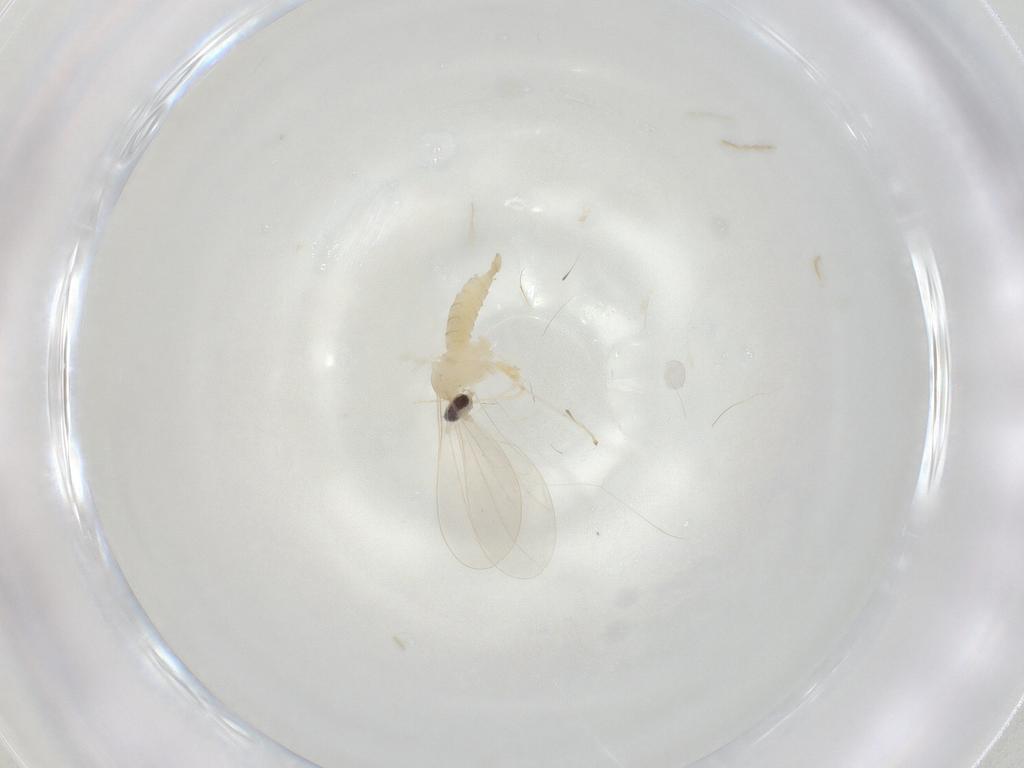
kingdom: Animalia
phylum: Arthropoda
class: Insecta
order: Diptera
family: Cecidomyiidae
